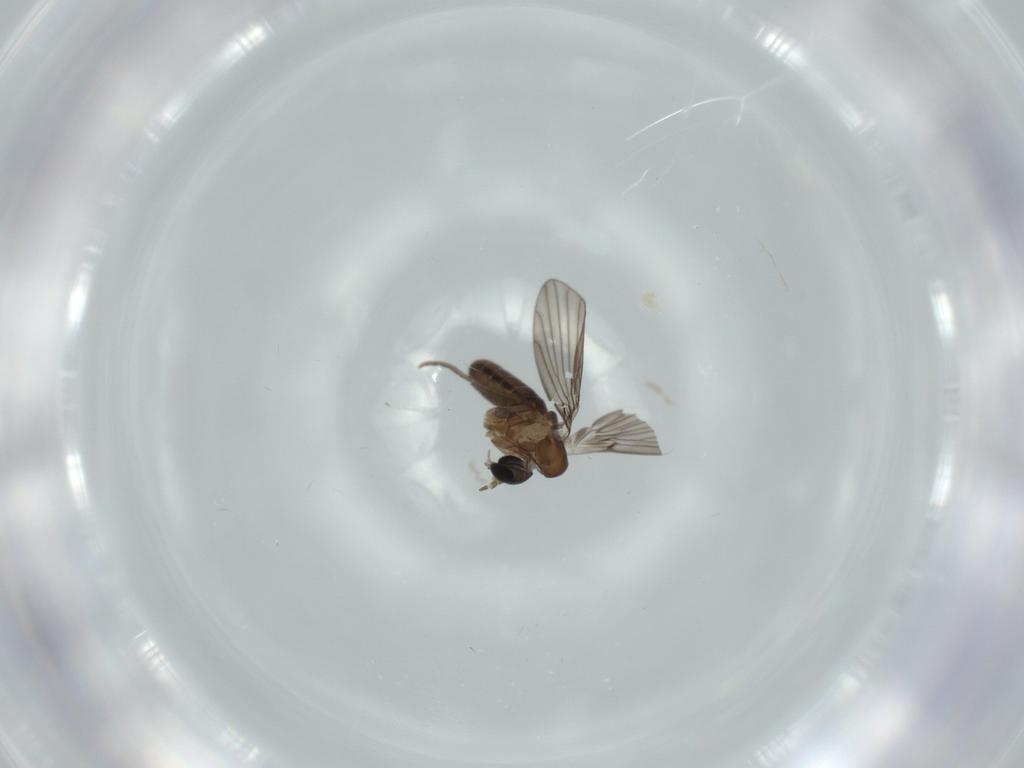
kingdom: Animalia
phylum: Arthropoda
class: Insecta
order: Diptera
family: Psychodidae
